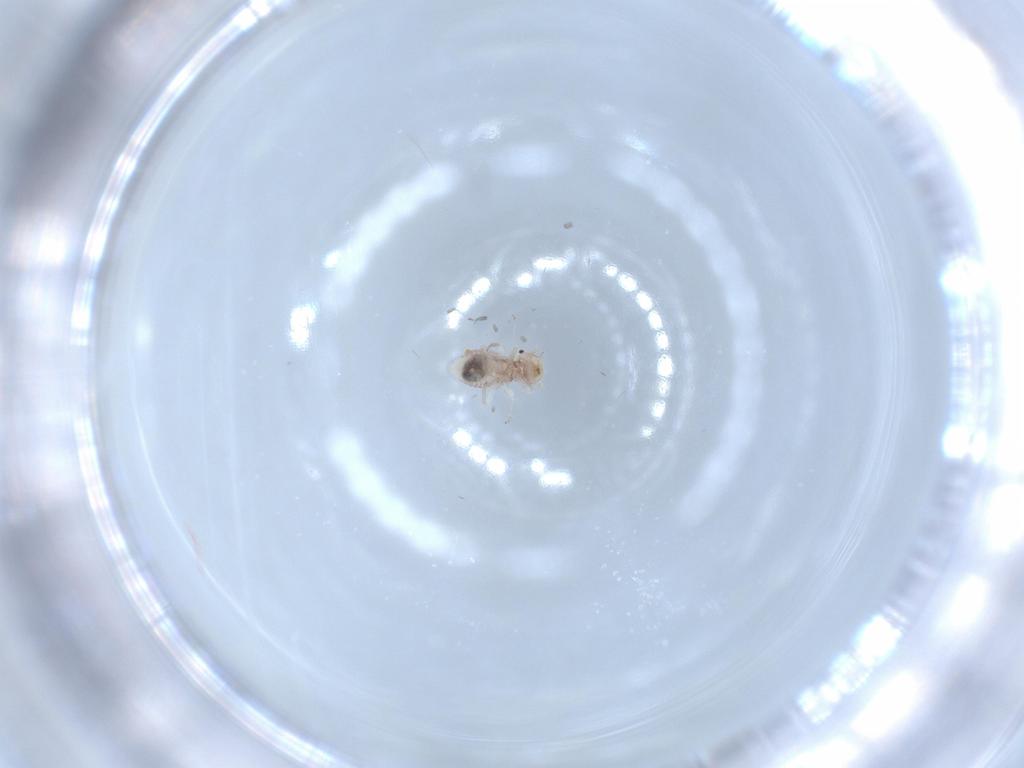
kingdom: Animalia
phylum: Arthropoda
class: Insecta
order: Psocodea
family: Ectopsocidae
